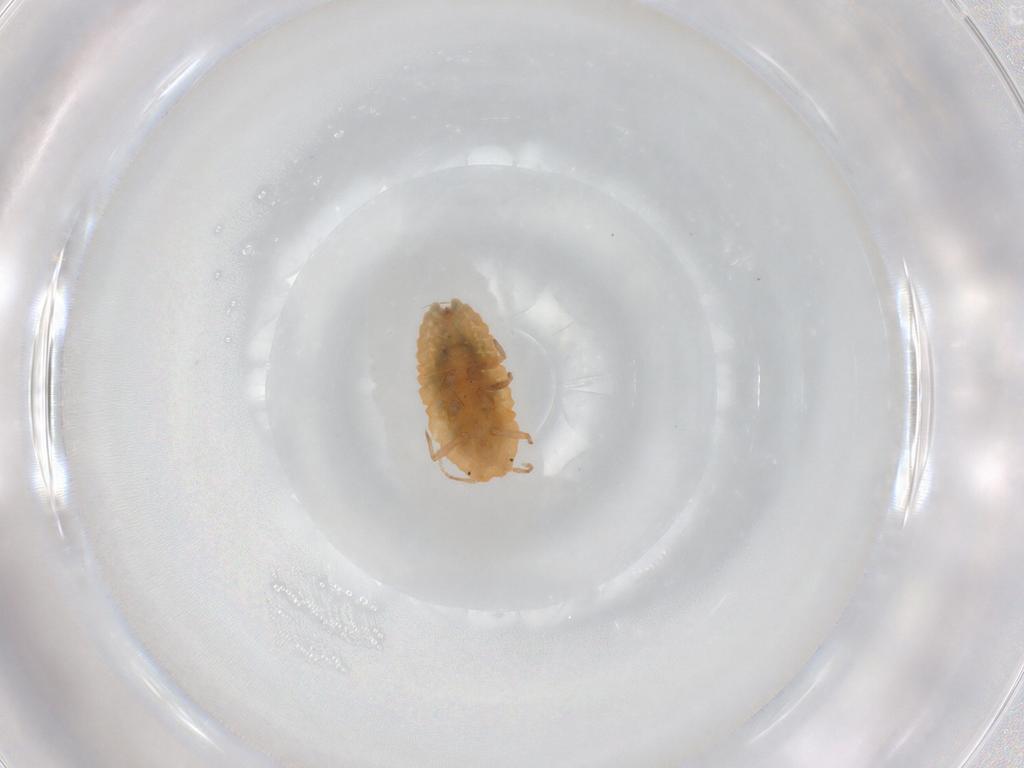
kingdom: Animalia
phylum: Arthropoda
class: Insecta
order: Hemiptera
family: Pseudococcidae
